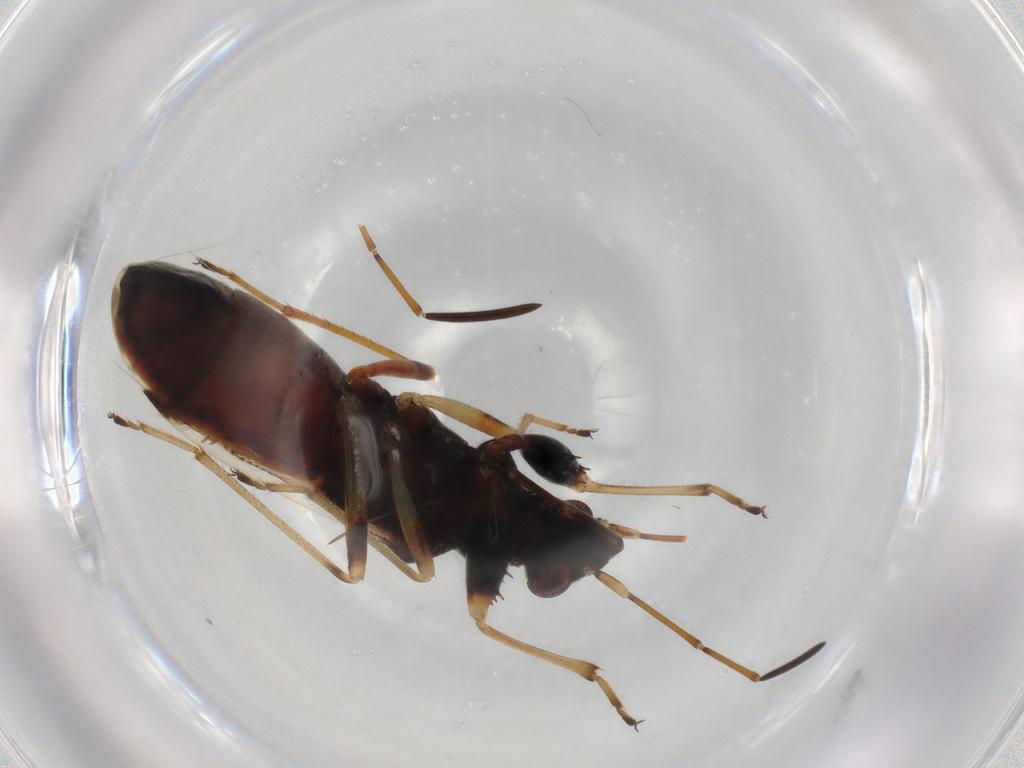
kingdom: Animalia
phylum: Arthropoda
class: Insecta
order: Hemiptera
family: Rhyparochromidae
